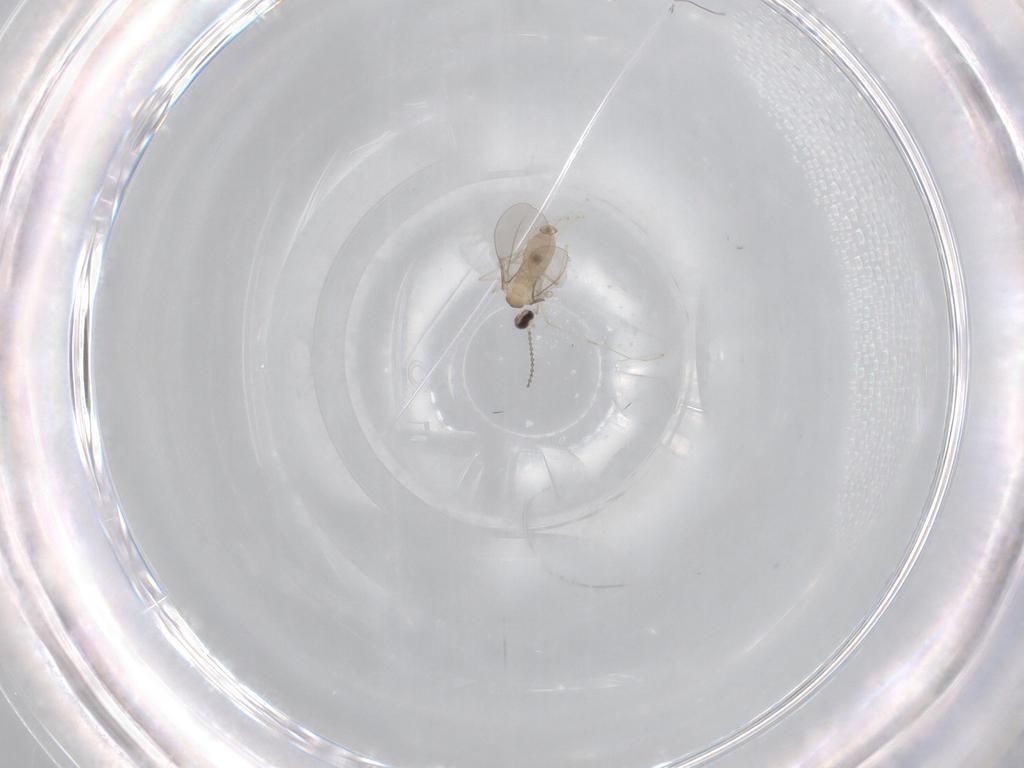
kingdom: Animalia
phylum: Arthropoda
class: Insecta
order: Diptera
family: Cecidomyiidae
